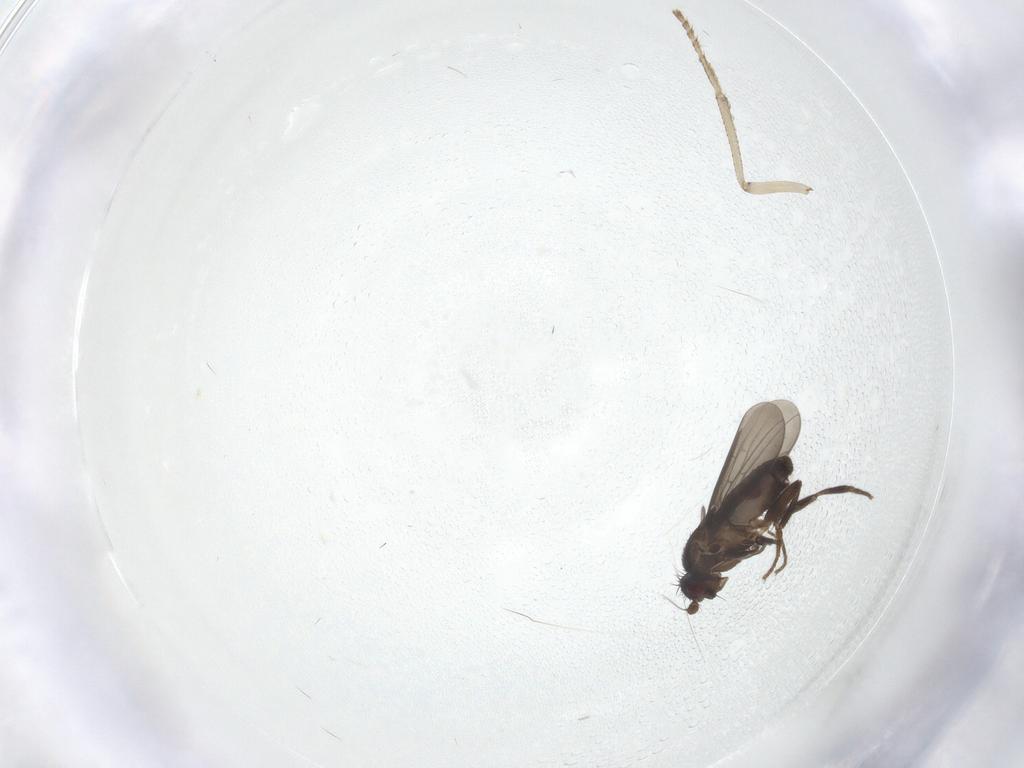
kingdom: Animalia
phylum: Arthropoda
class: Insecta
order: Diptera
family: Sphaeroceridae
